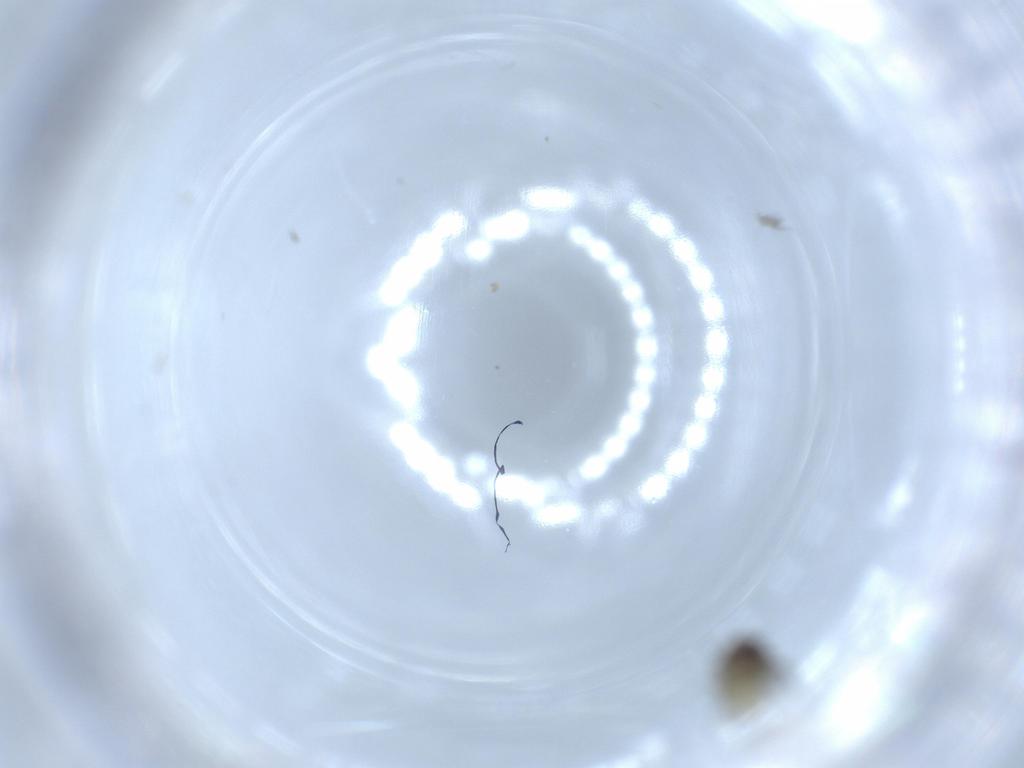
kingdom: Animalia
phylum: Arthropoda
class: Insecta
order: Hymenoptera
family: Scelionidae
